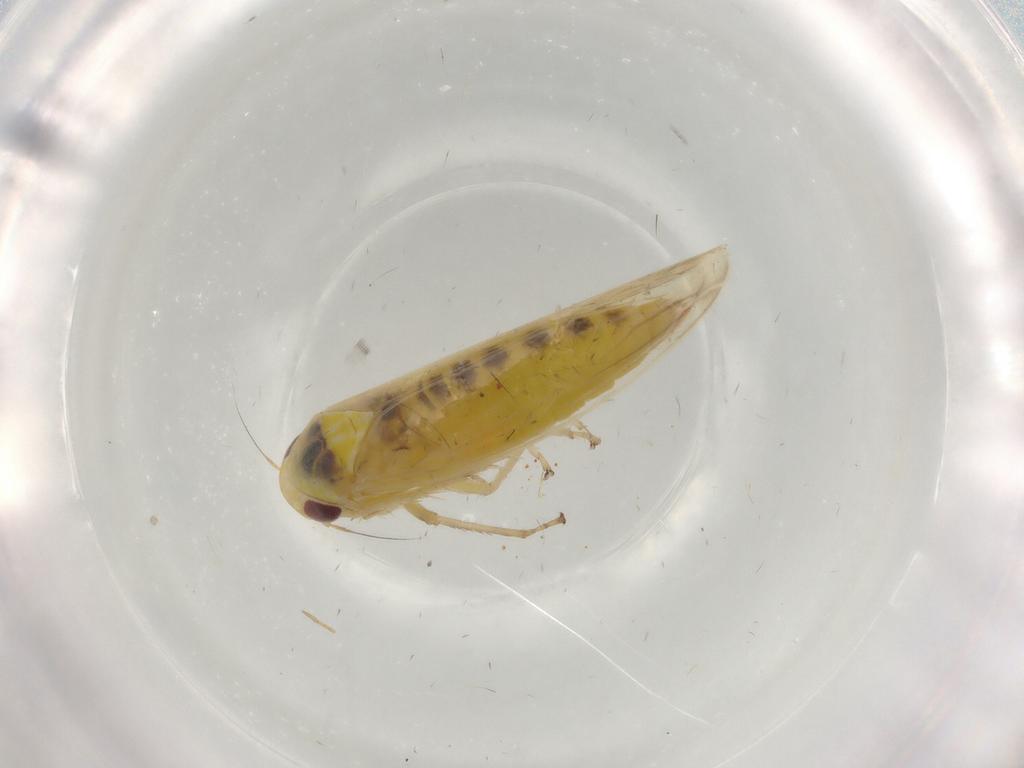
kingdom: Animalia
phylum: Arthropoda
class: Insecta
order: Hemiptera
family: Cicadellidae
